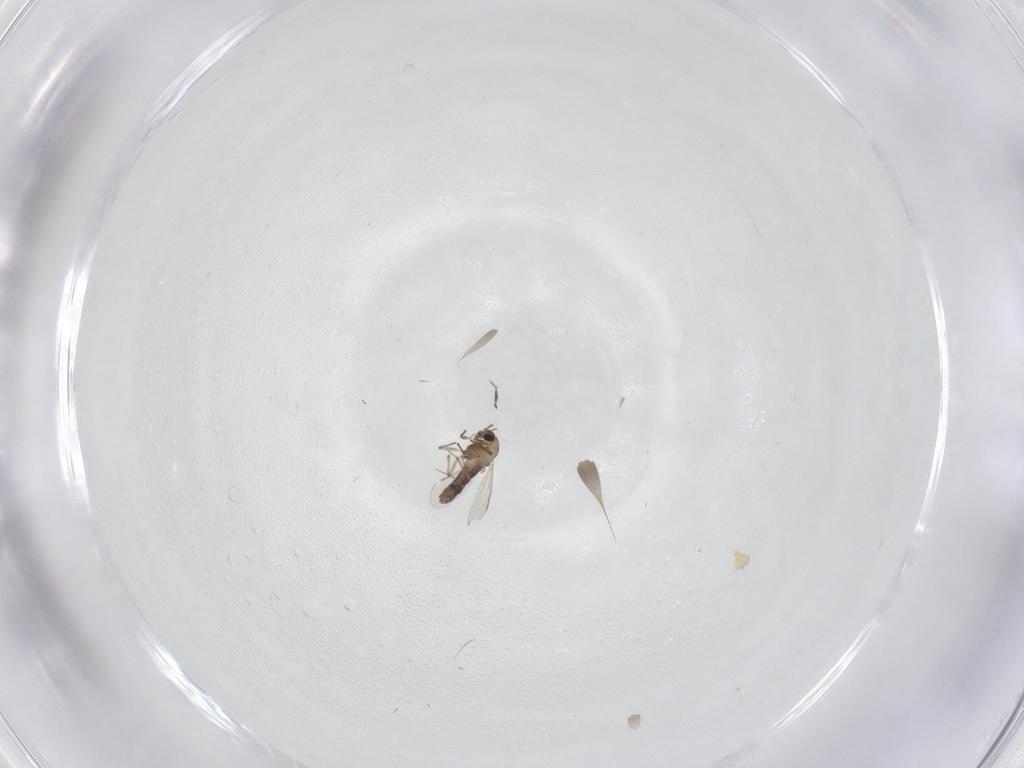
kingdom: Animalia
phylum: Arthropoda
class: Insecta
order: Diptera
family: Chironomidae
